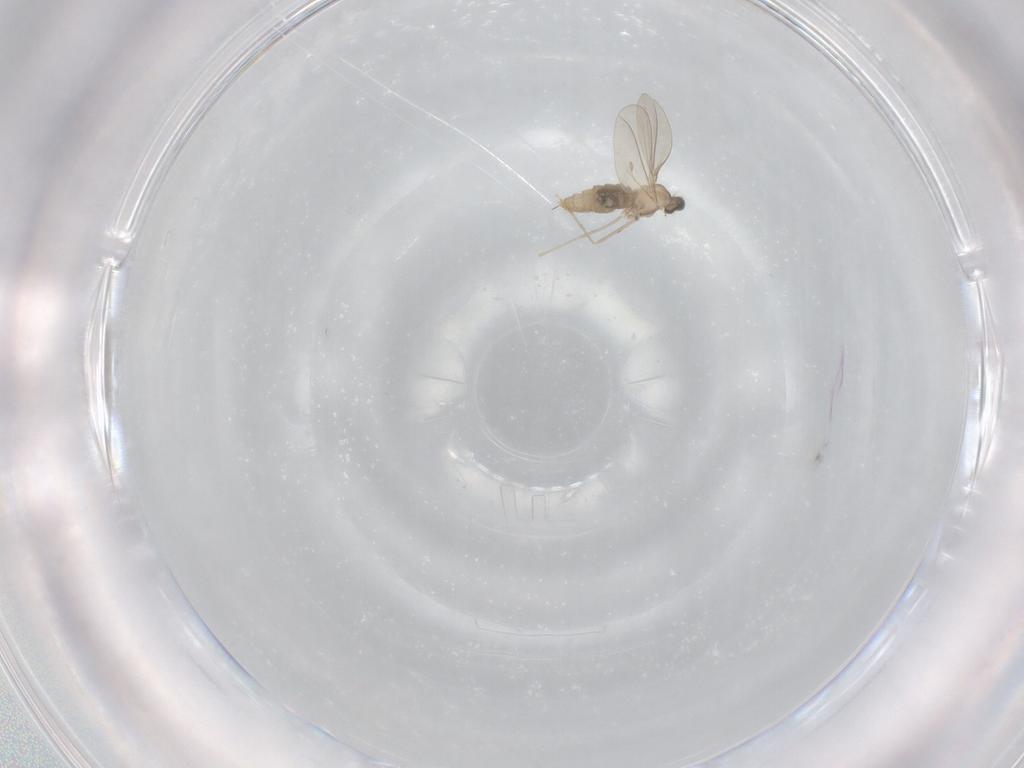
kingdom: Animalia
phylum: Arthropoda
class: Insecta
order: Diptera
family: Cecidomyiidae
